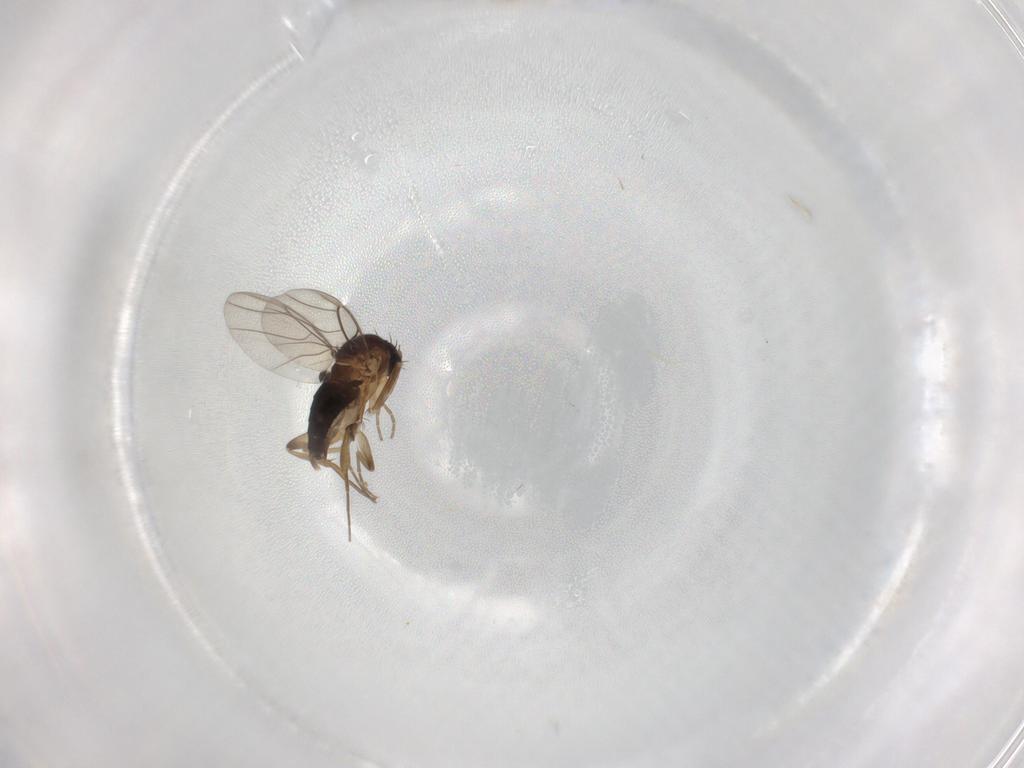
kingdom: Animalia
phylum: Arthropoda
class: Insecta
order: Diptera
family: Phoridae
